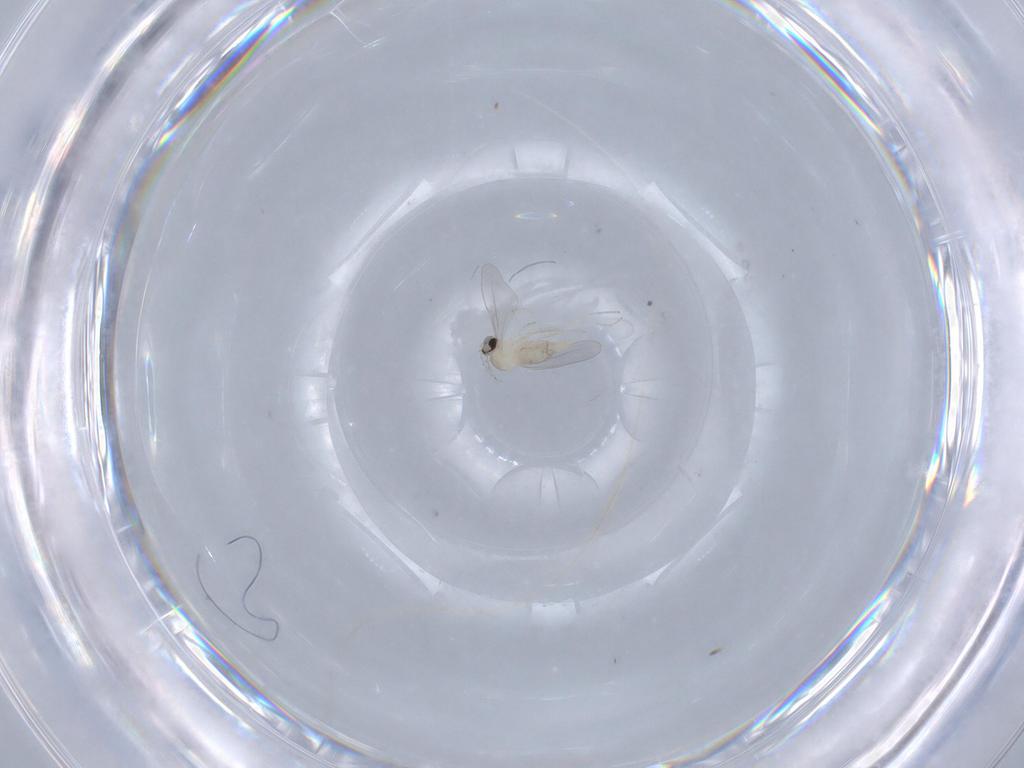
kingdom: Animalia
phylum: Arthropoda
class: Insecta
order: Diptera
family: Cecidomyiidae
